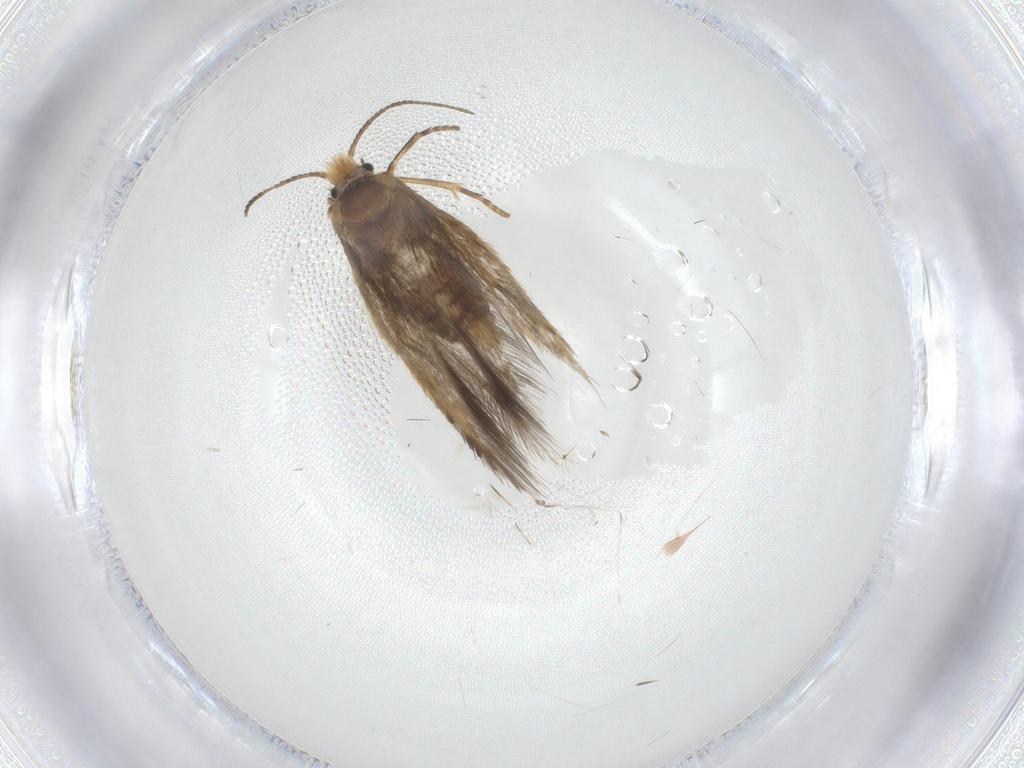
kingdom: Animalia
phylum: Arthropoda
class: Insecta
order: Lepidoptera
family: Nepticulidae
